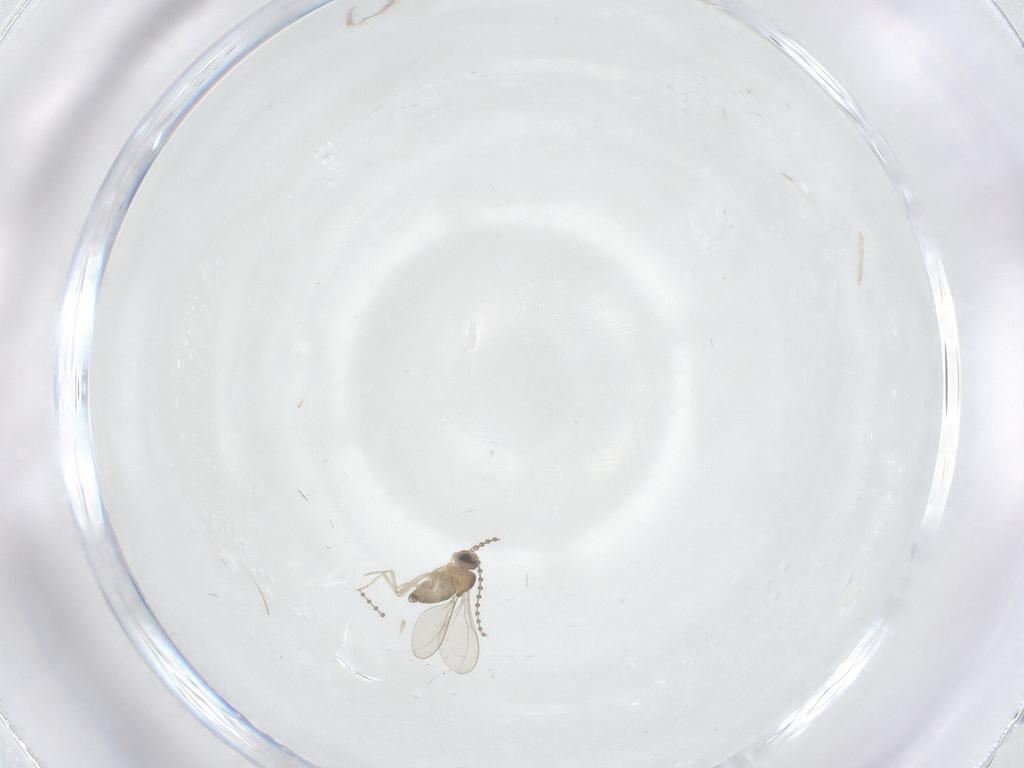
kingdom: Animalia
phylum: Arthropoda
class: Insecta
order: Diptera
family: Cecidomyiidae
